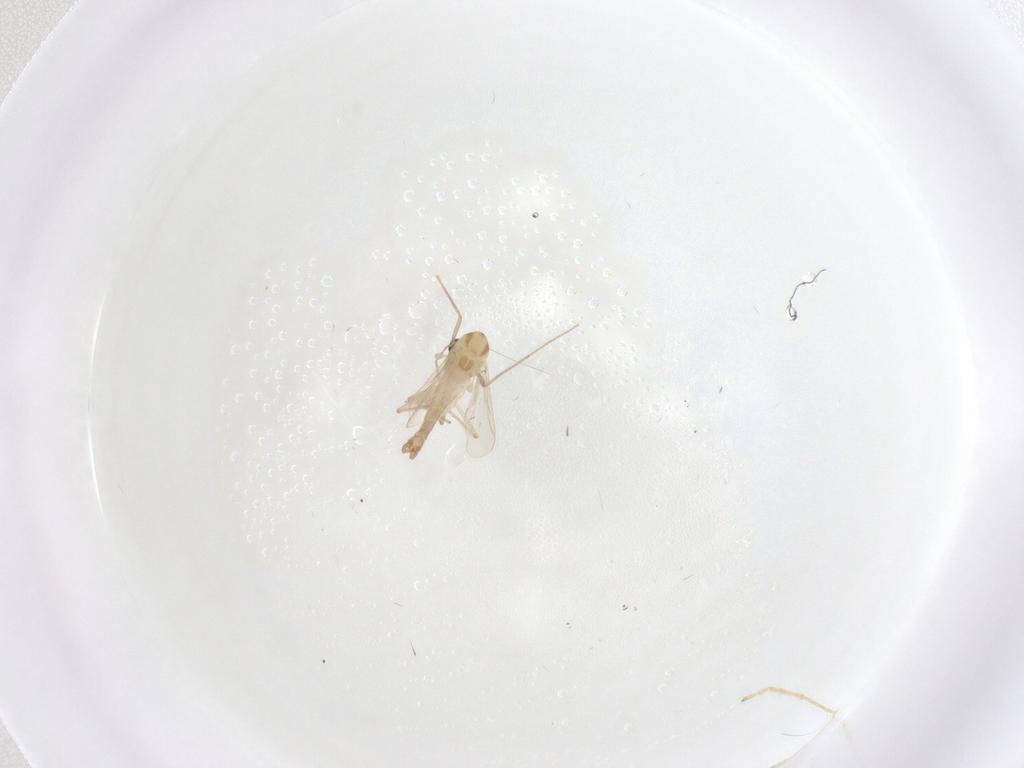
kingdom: Animalia
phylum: Arthropoda
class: Insecta
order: Diptera
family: Chironomidae
